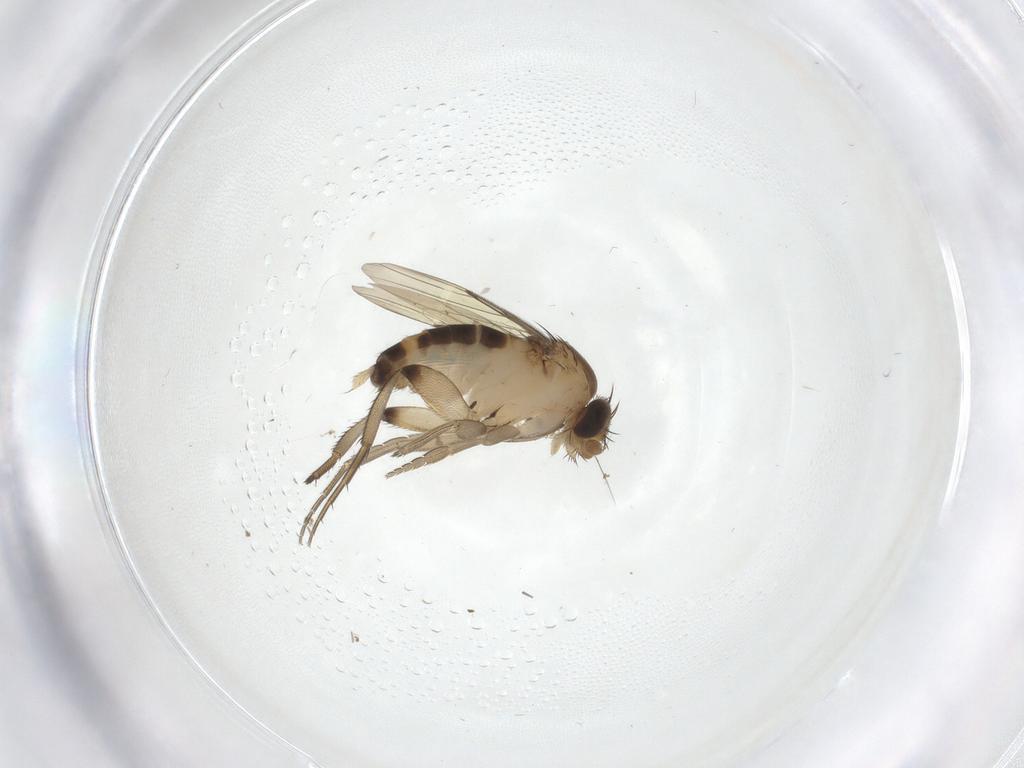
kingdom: Animalia
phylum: Arthropoda
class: Insecta
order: Diptera
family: Phoridae
